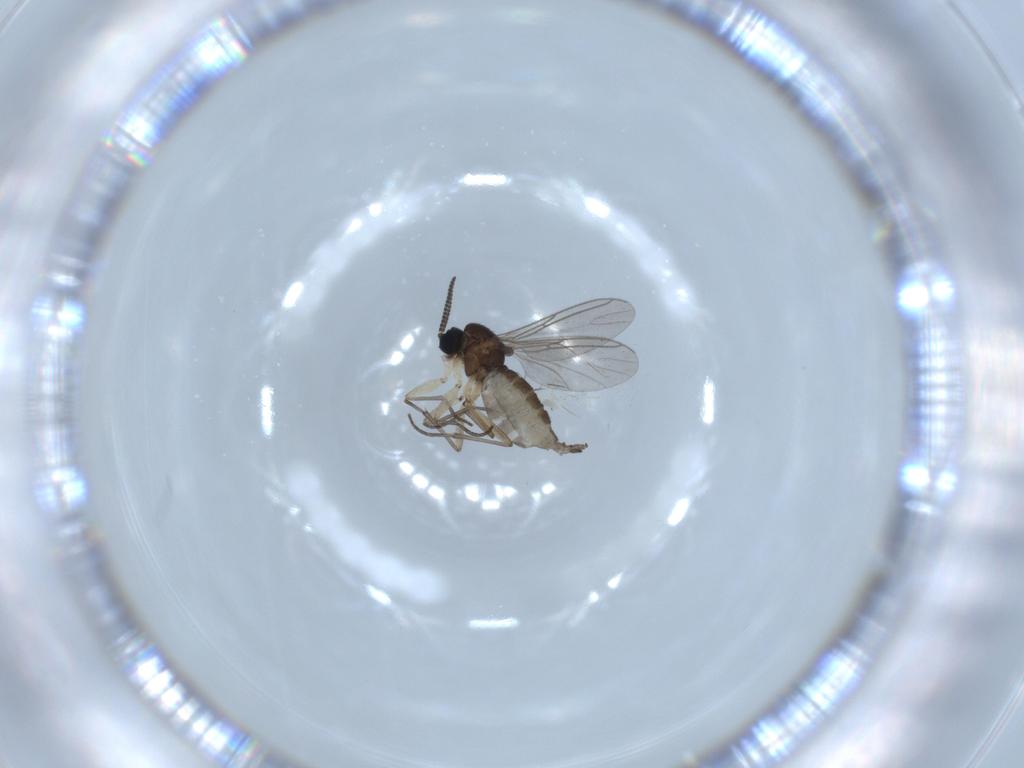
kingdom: Animalia
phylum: Arthropoda
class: Insecta
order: Diptera
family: Sciaridae
